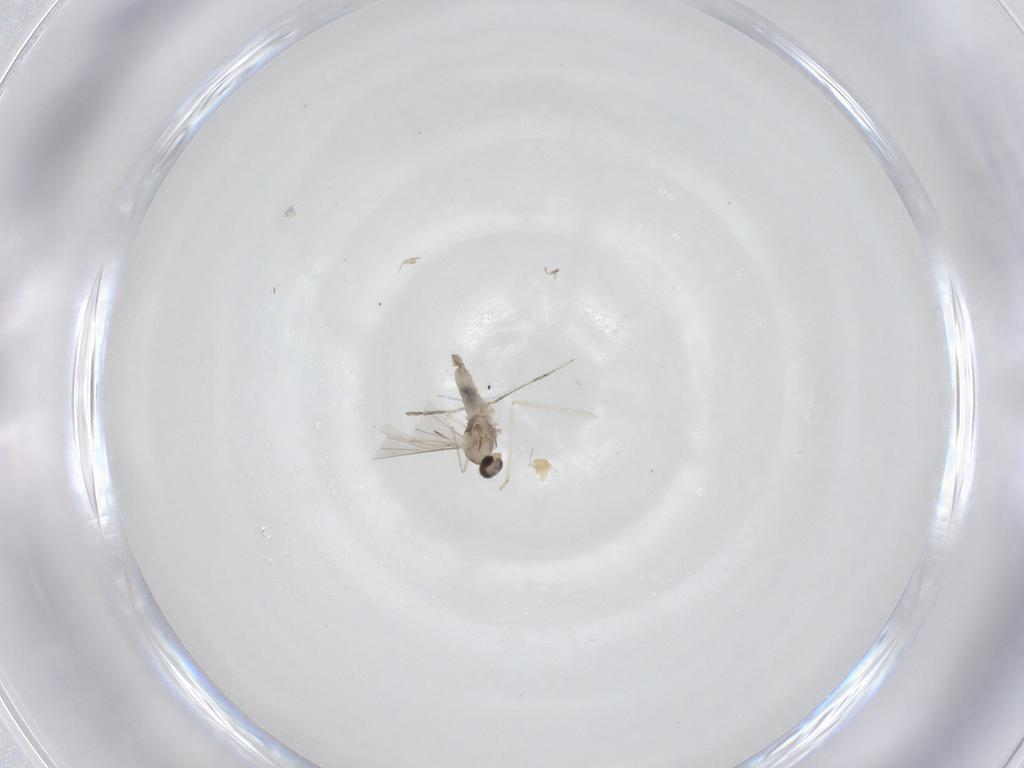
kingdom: Animalia
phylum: Arthropoda
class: Insecta
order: Diptera
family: Cecidomyiidae
